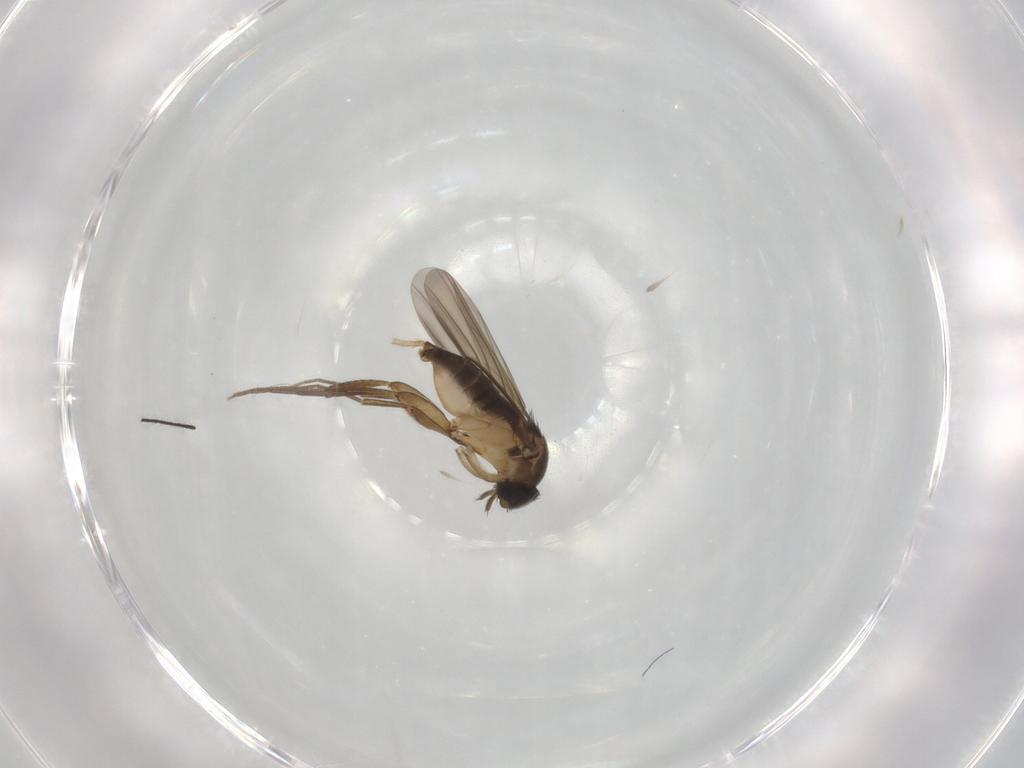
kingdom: Animalia
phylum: Arthropoda
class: Insecta
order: Diptera
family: Phoridae
